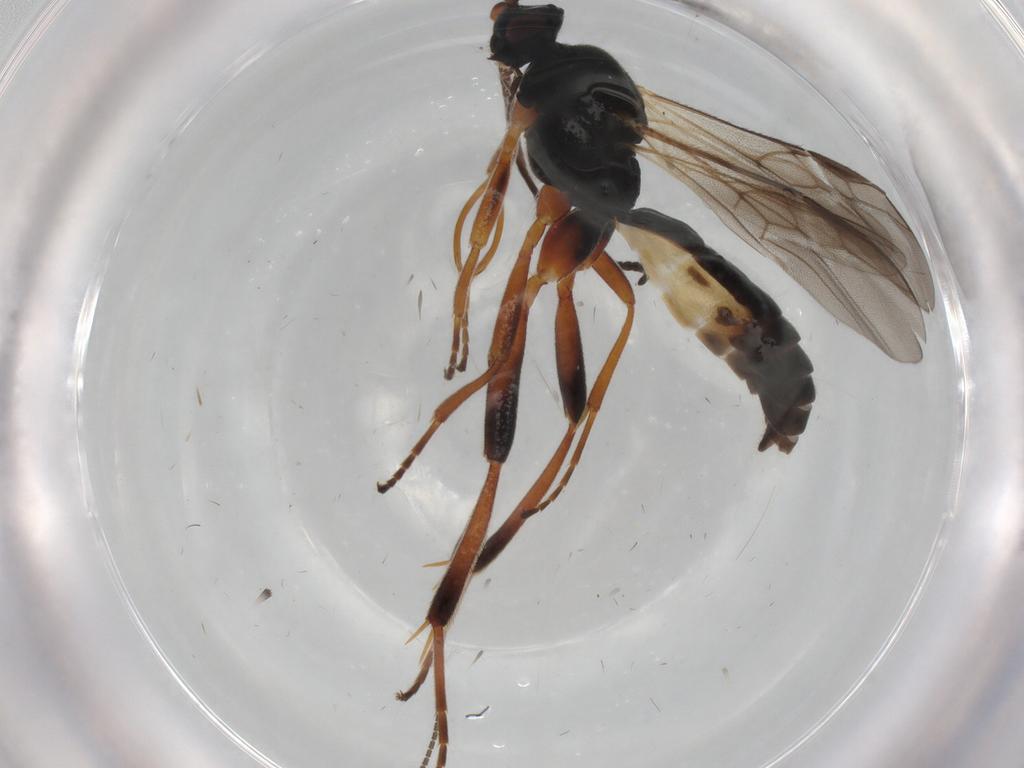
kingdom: Animalia
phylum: Arthropoda
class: Insecta
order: Hymenoptera
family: Braconidae
